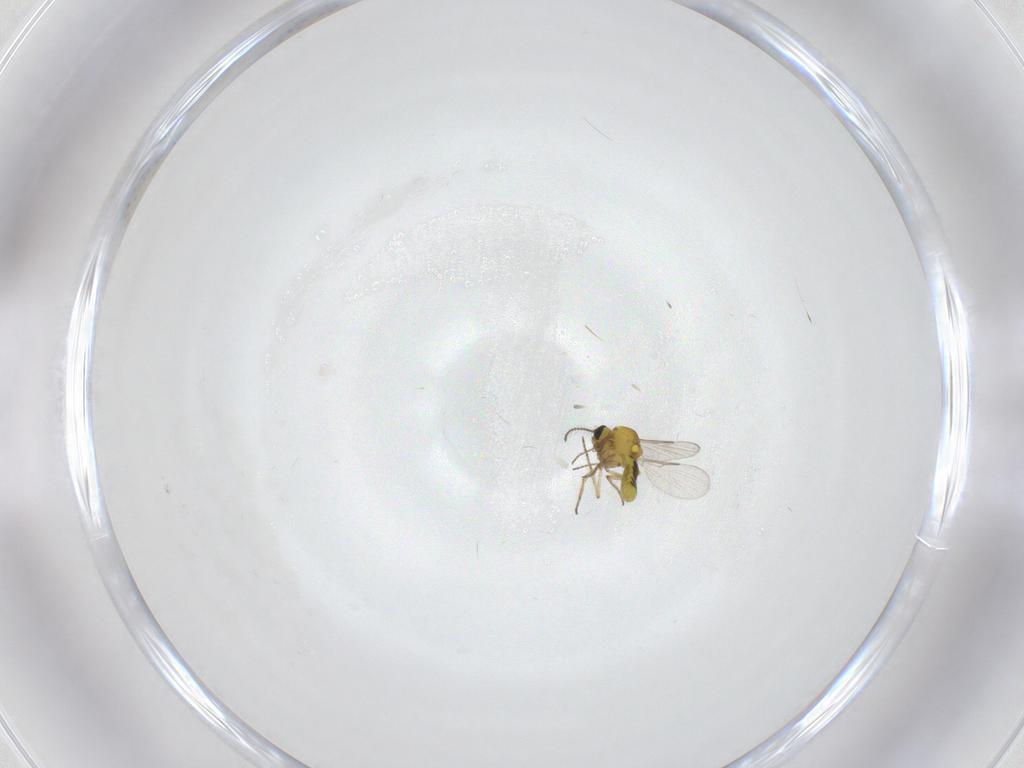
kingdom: Animalia
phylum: Arthropoda
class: Insecta
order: Diptera
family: Ceratopogonidae
